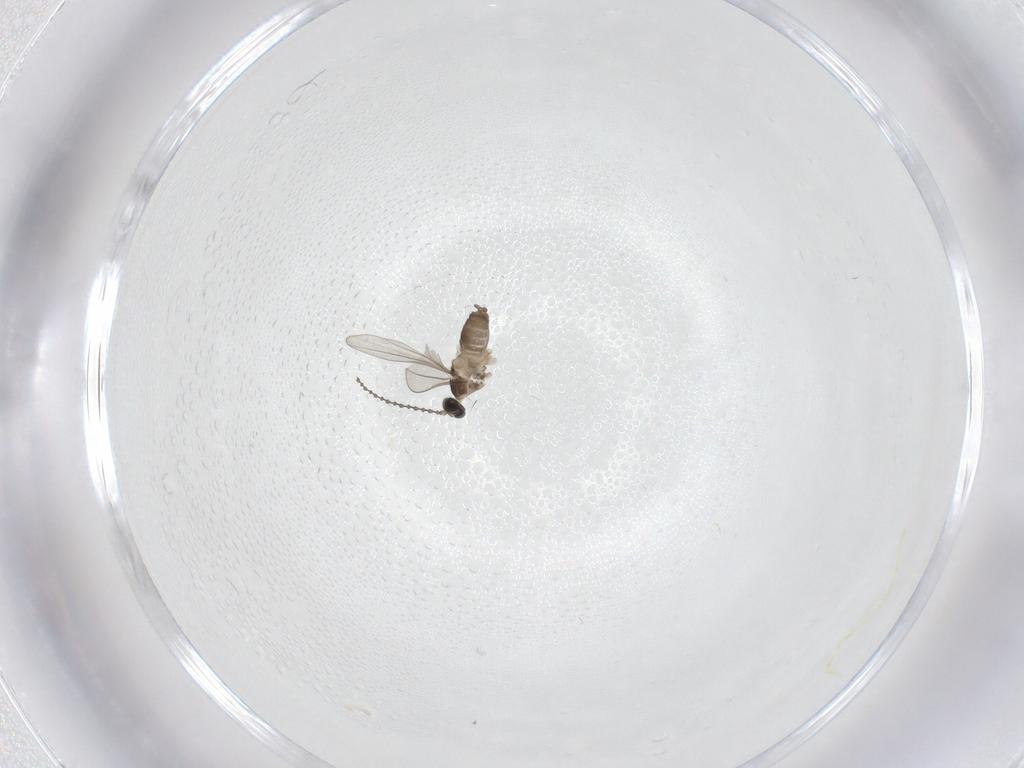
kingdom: Animalia
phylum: Arthropoda
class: Insecta
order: Diptera
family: Cecidomyiidae
